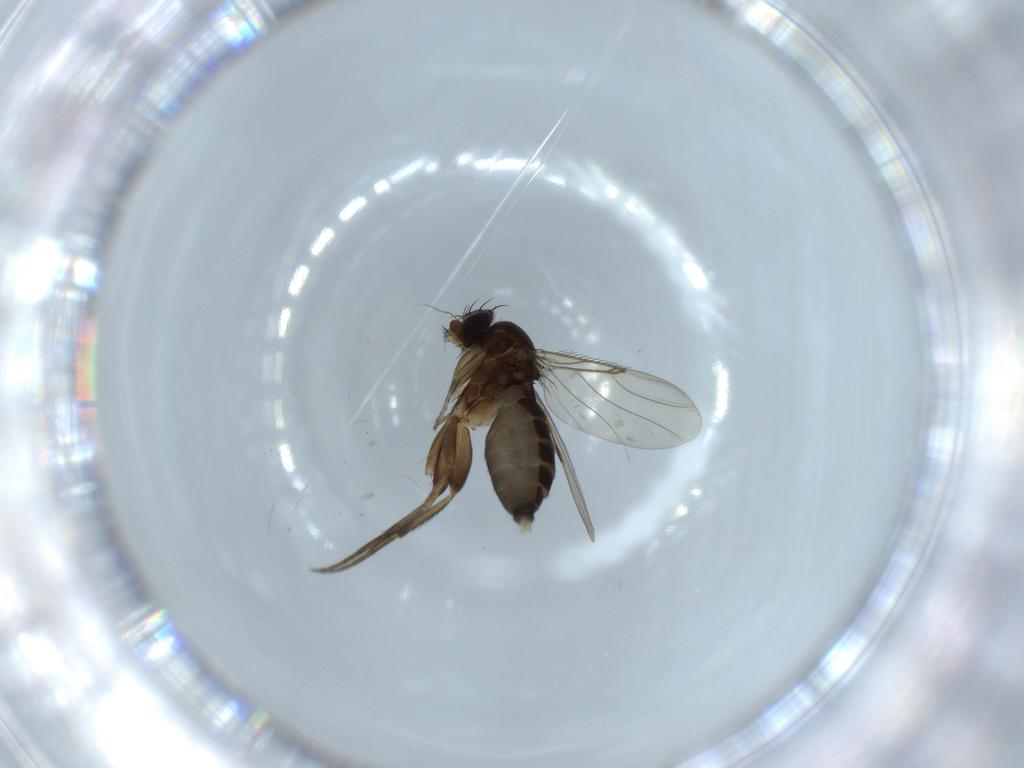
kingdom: Animalia
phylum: Arthropoda
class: Insecta
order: Diptera
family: Phoridae
